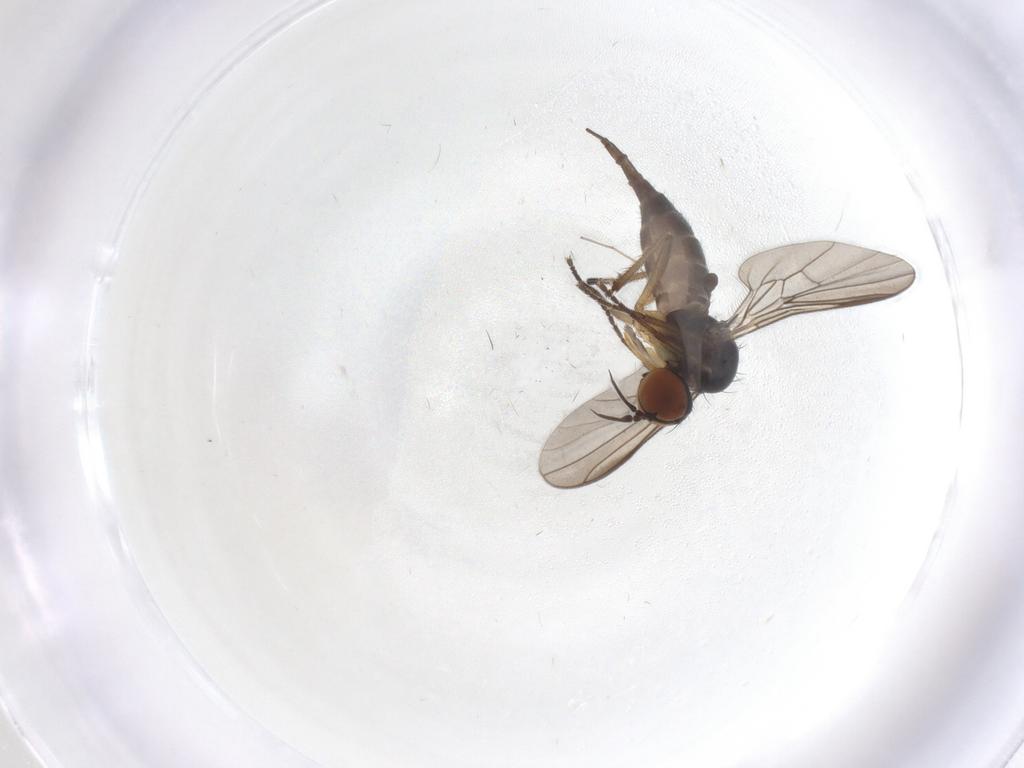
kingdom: Animalia
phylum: Arthropoda
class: Insecta
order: Diptera
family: Empididae
